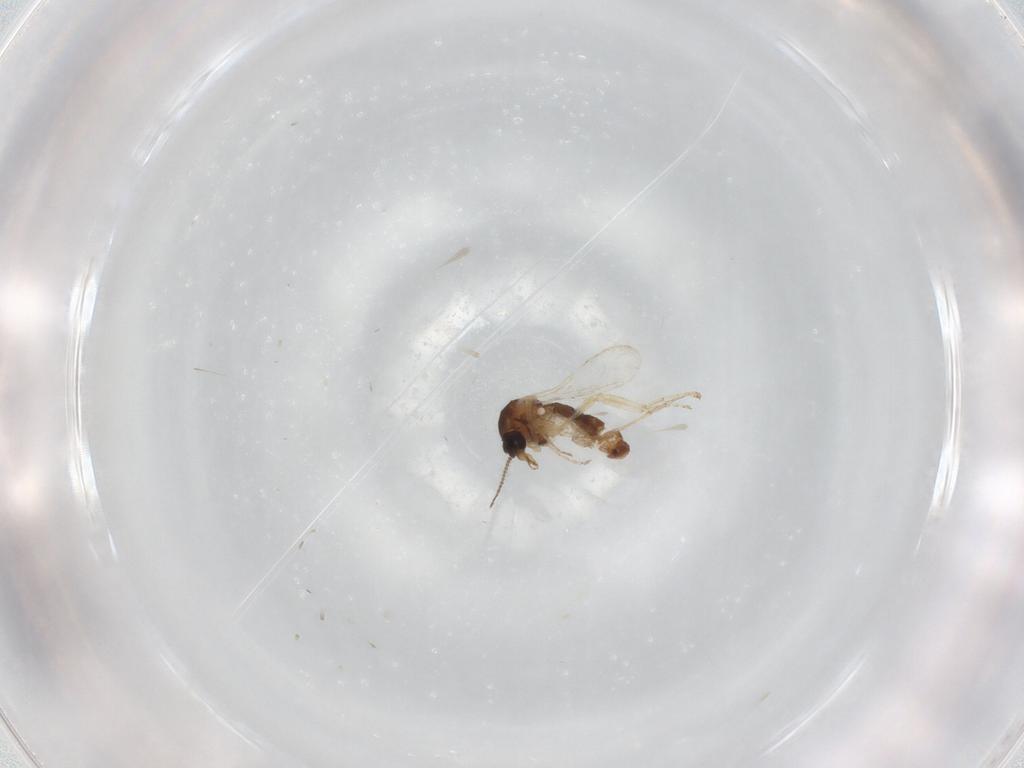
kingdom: Animalia
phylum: Arthropoda
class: Insecta
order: Diptera
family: Ceratopogonidae
